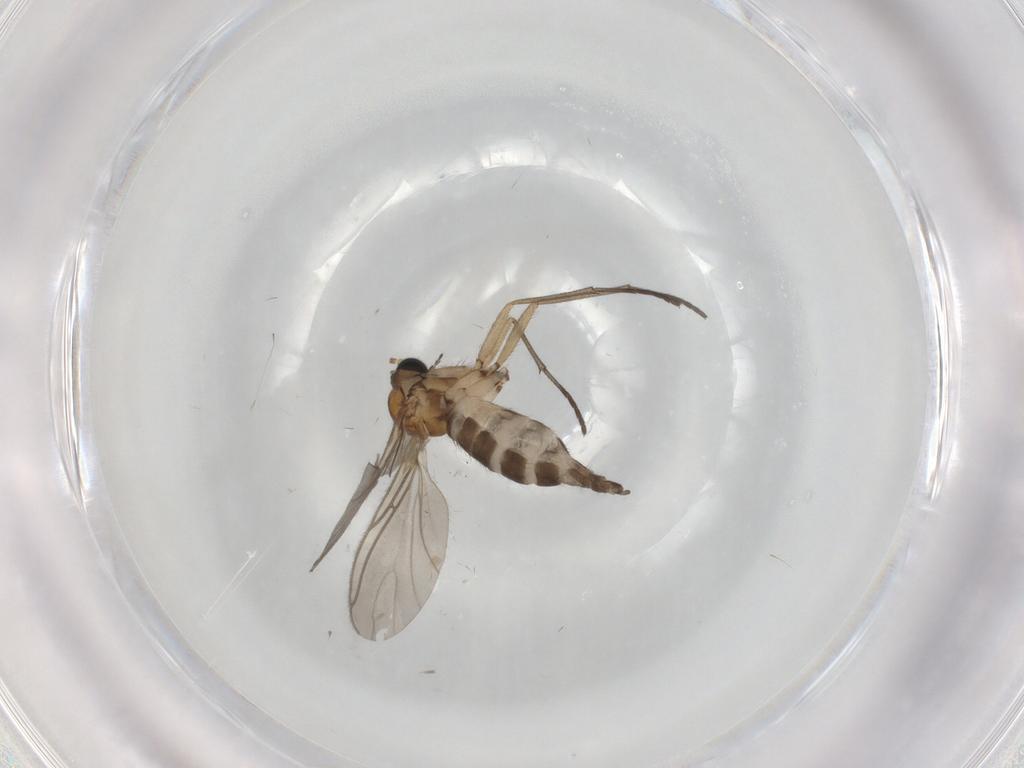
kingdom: Animalia
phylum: Arthropoda
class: Insecta
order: Diptera
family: Sciaridae
